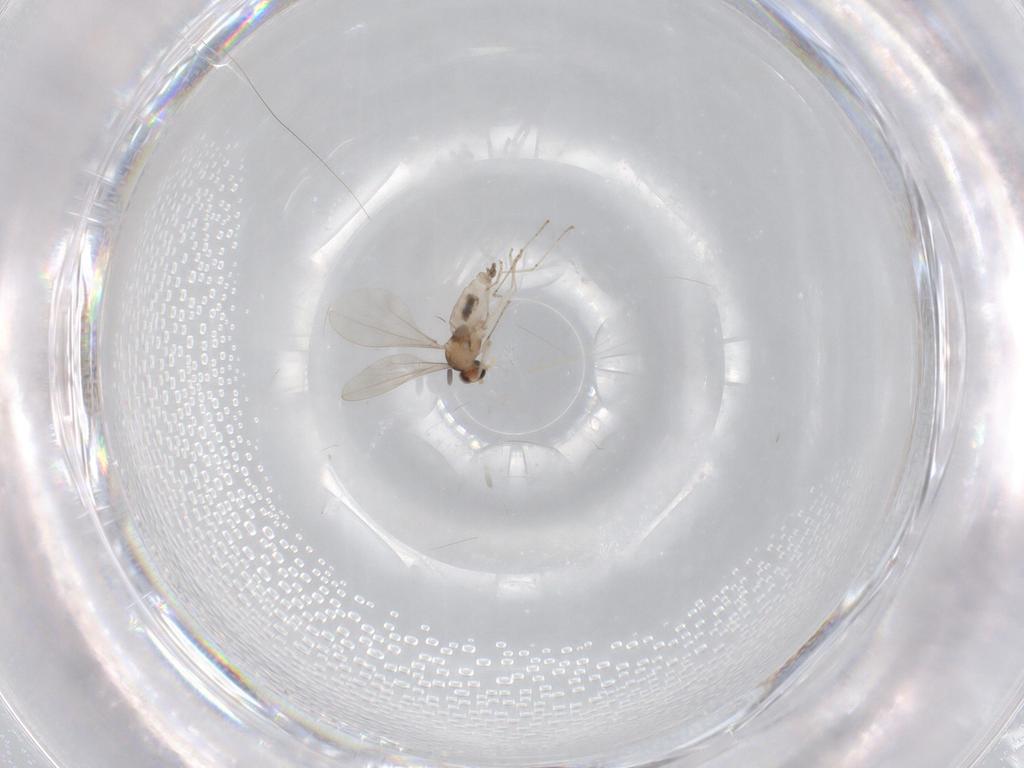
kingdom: Animalia
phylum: Arthropoda
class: Insecta
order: Diptera
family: Cecidomyiidae
